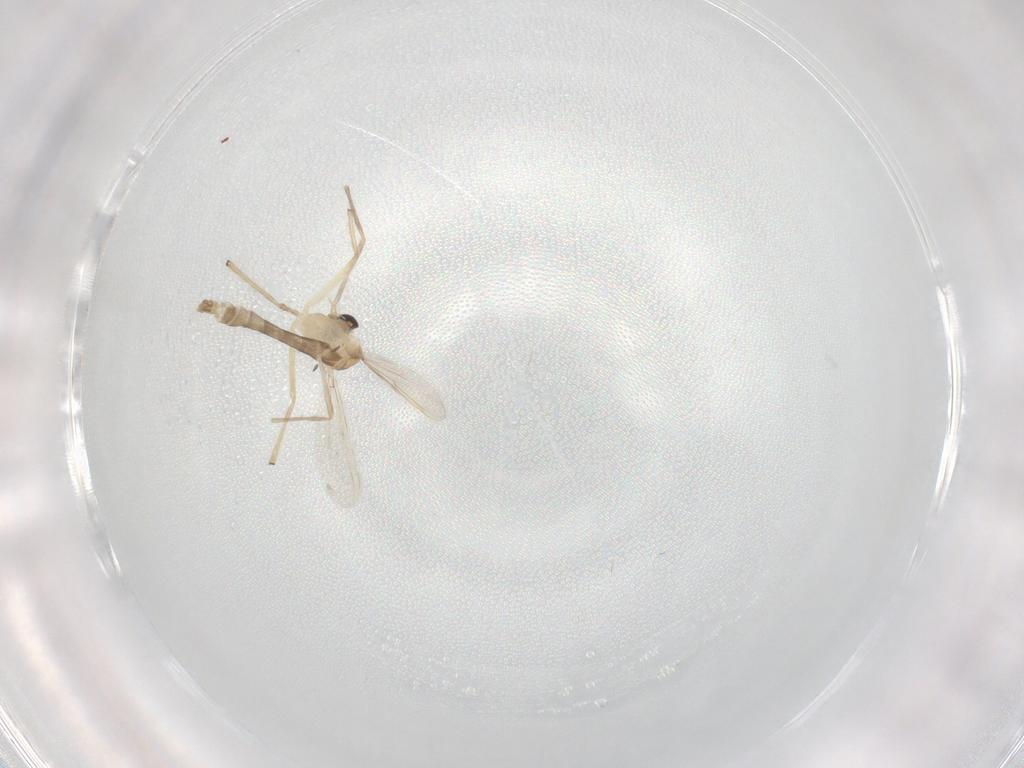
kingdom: Animalia
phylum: Arthropoda
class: Insecta
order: Diptera
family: Chironomidae
